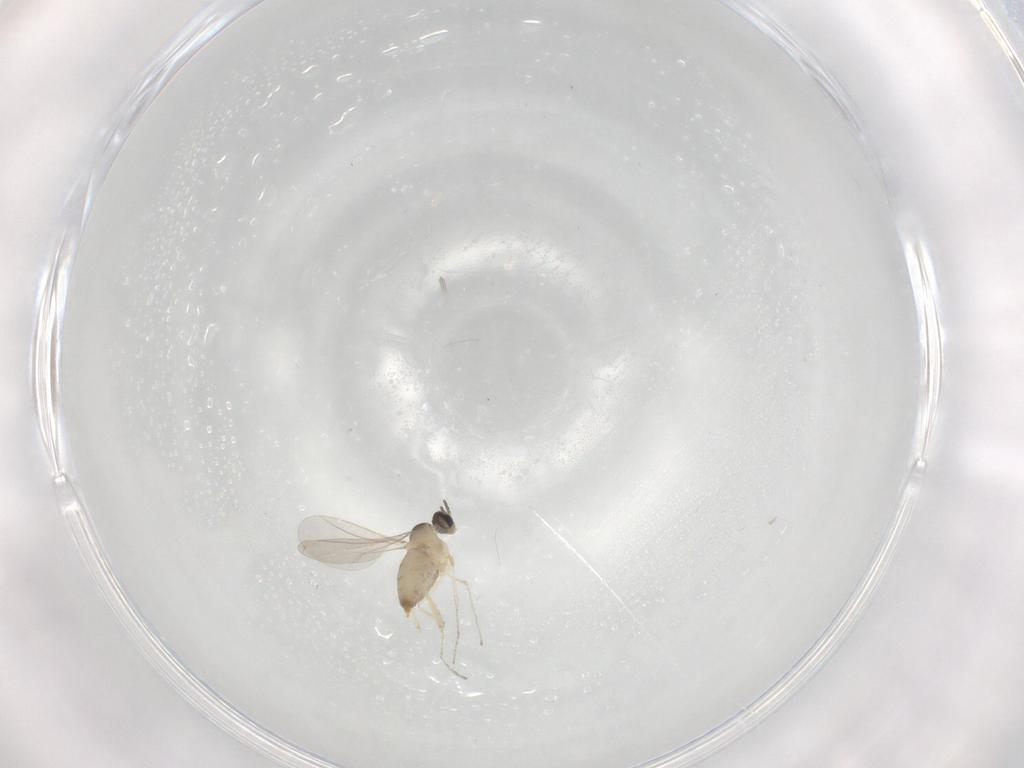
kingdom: Animalia
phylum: Arthropoda
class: Insecta
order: Diptera
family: Cecidomyiidae
